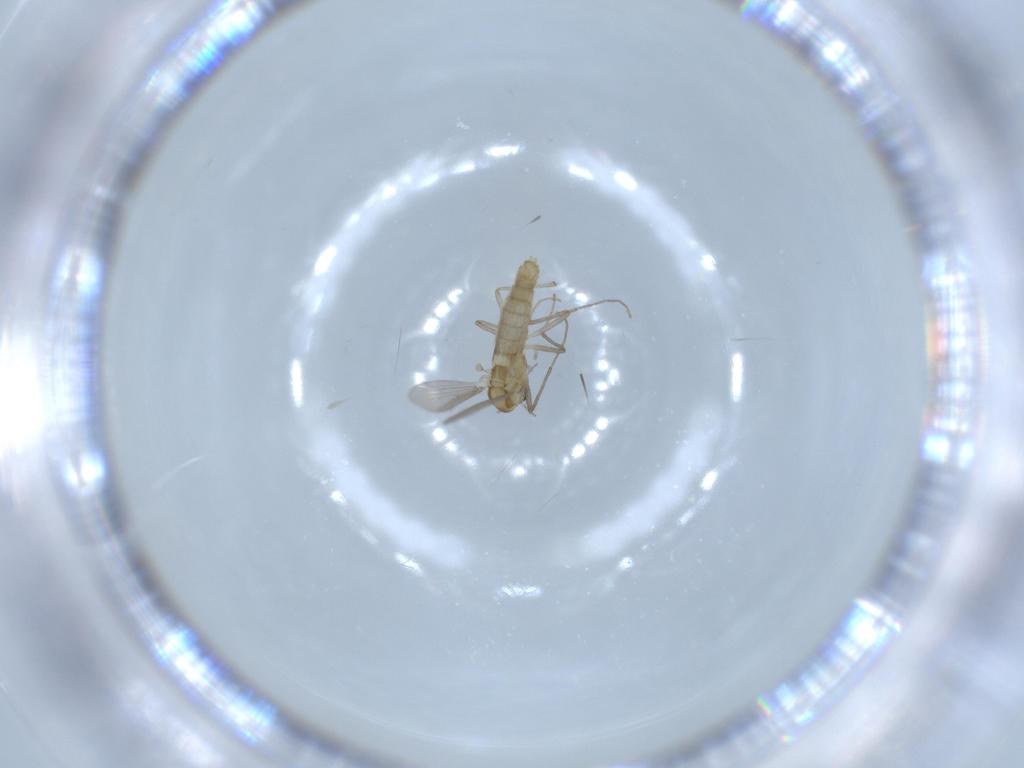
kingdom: Animalia
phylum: Arthropoda
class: Insecta
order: Diptera
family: Chironomidae
